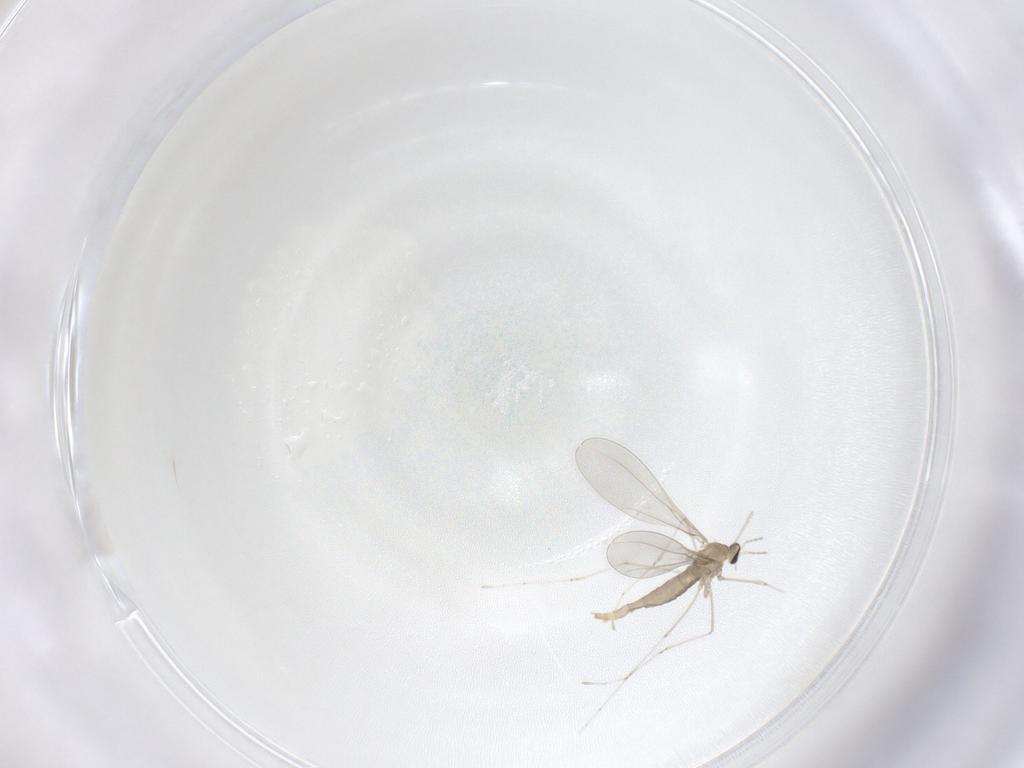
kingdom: Animalia
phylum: Arthropoda
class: Insecta
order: Diptera
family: Cecidomyiidae
